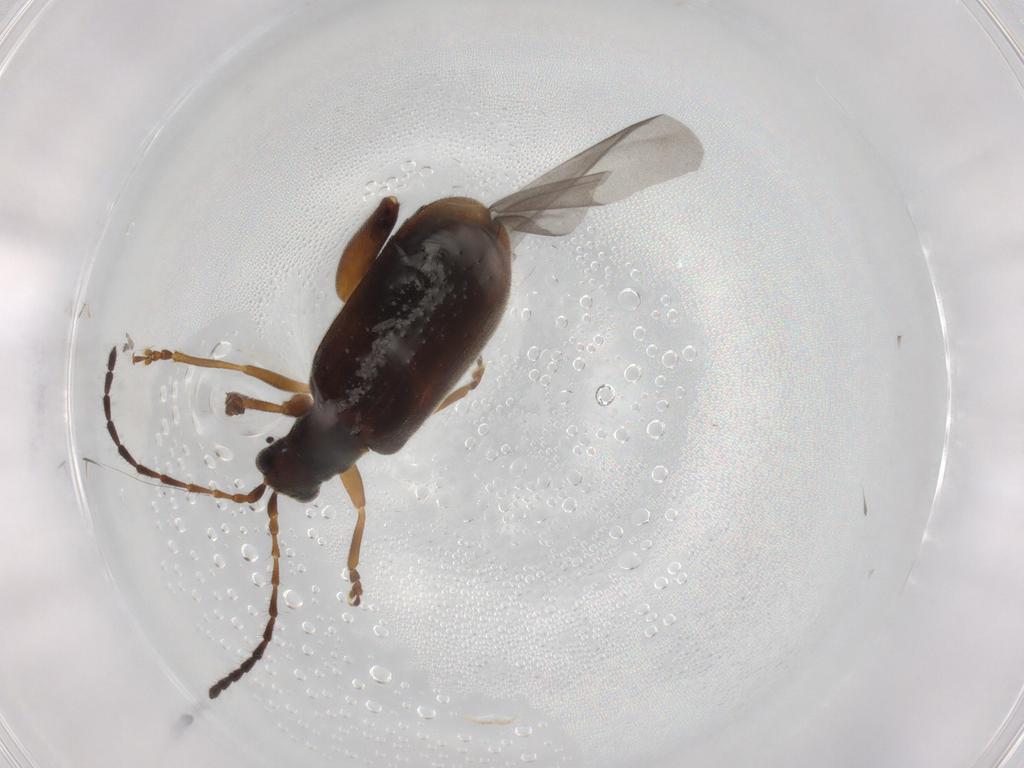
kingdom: Animalia
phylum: Arthropoda
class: Insecta
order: Coleoptera
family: Chrysomelidae
